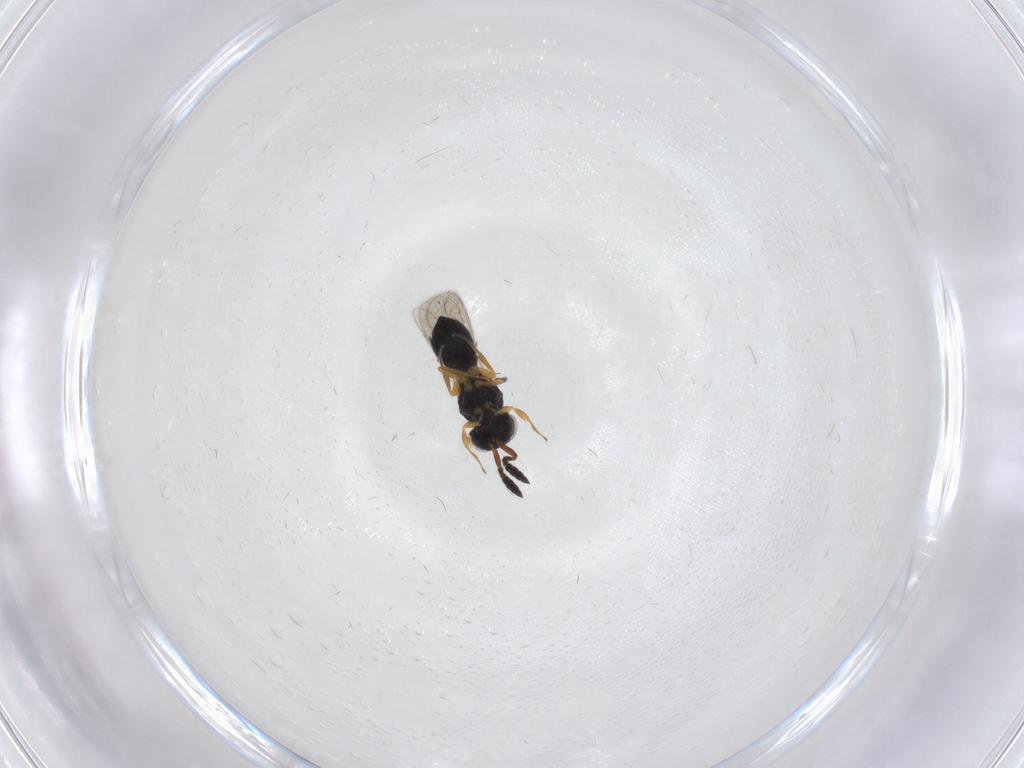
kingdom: Animalia
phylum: Arthropoda
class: Insecta
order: Hymenoptera
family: Scelionidae
